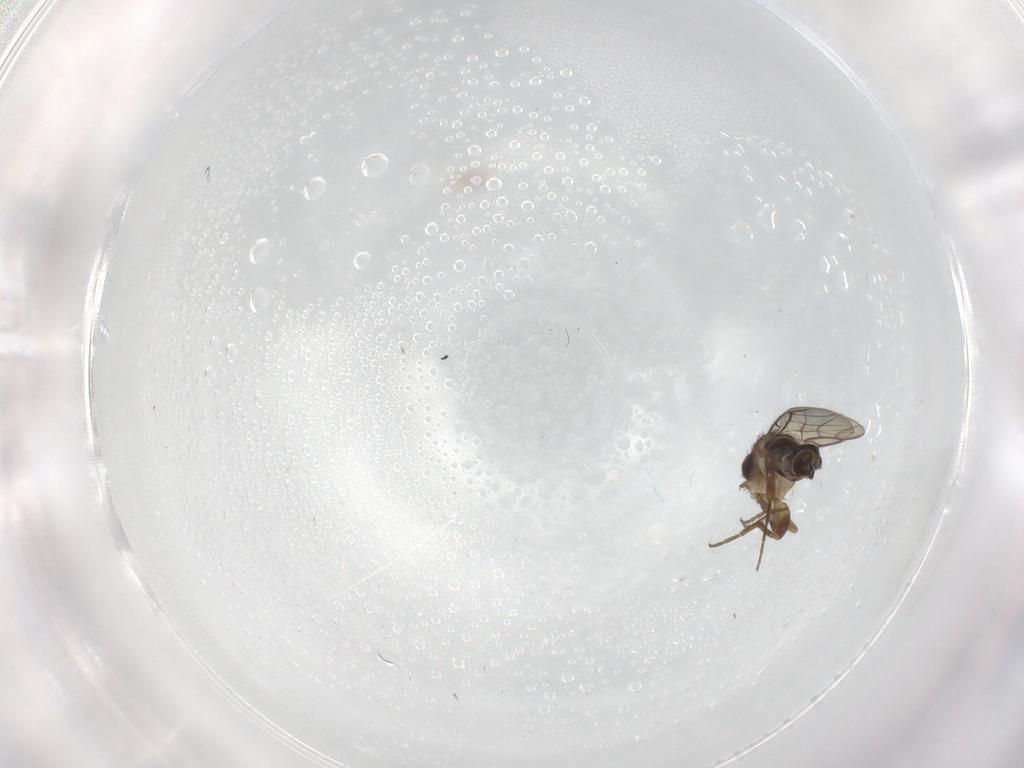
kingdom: Animalia
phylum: Arthropoda
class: Insecta
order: Diptera
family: Phoridae
